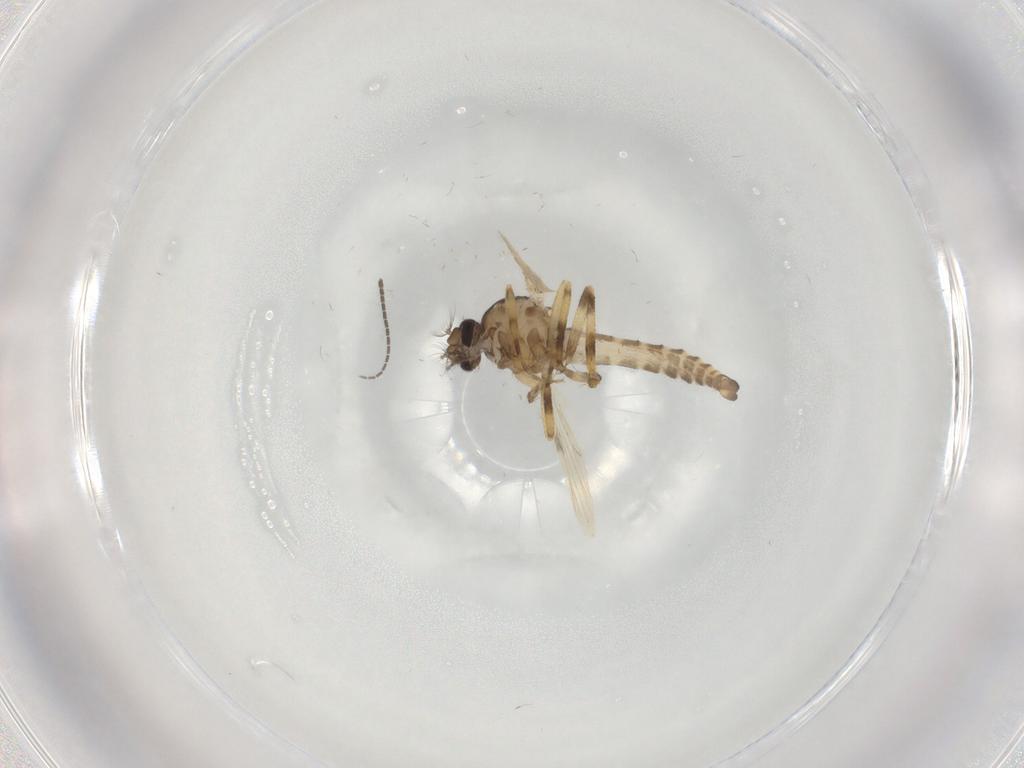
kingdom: Animalia
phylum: Arthropoda
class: Insecta
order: Diptera
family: Ceratopogonidae
